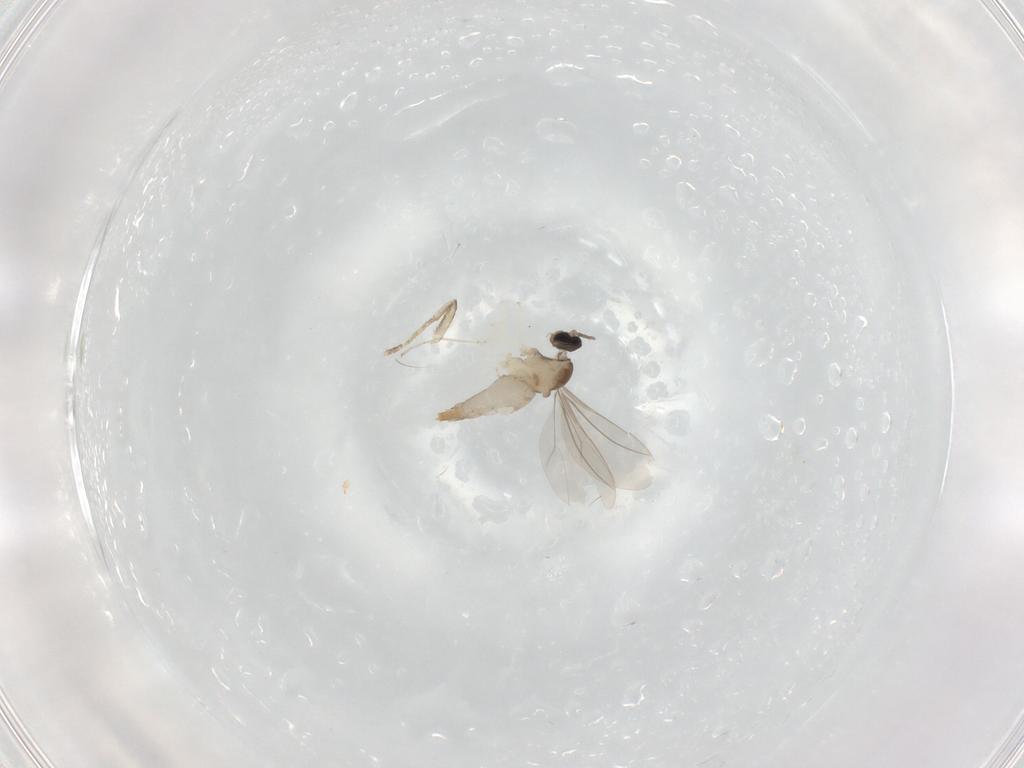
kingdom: Animalia
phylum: Arthropoda
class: Insecta
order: Diptera
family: Cecidomyiidae
